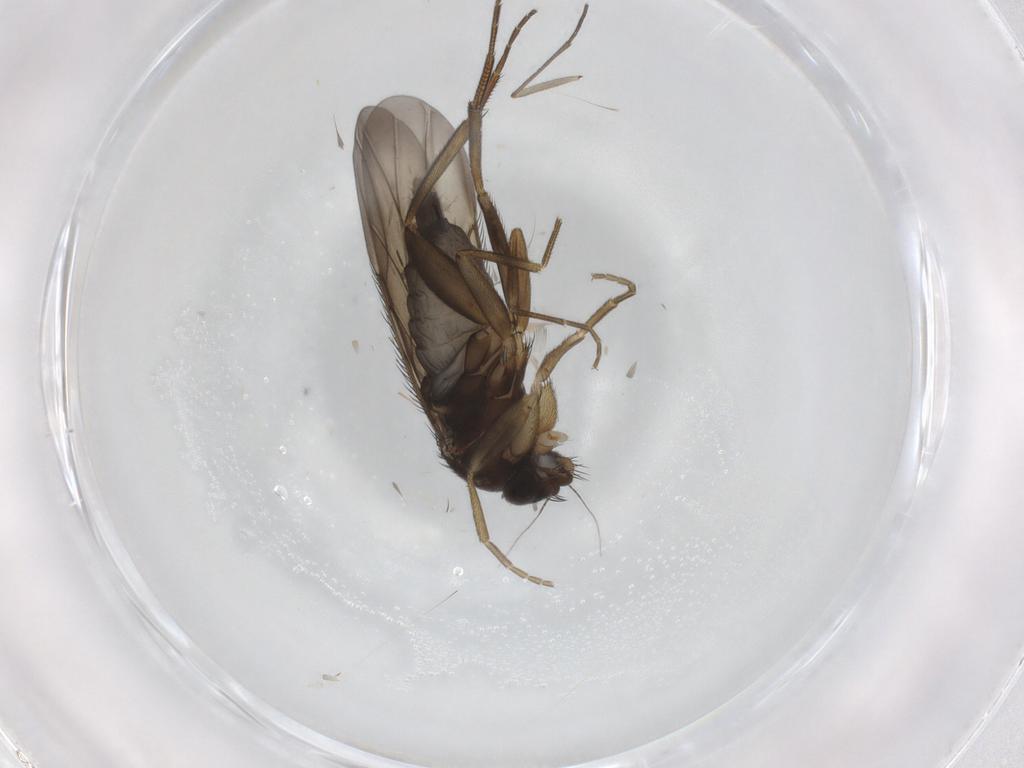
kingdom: Animalia
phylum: Arthropoda
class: Insecta
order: Diptera
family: Phoridae
